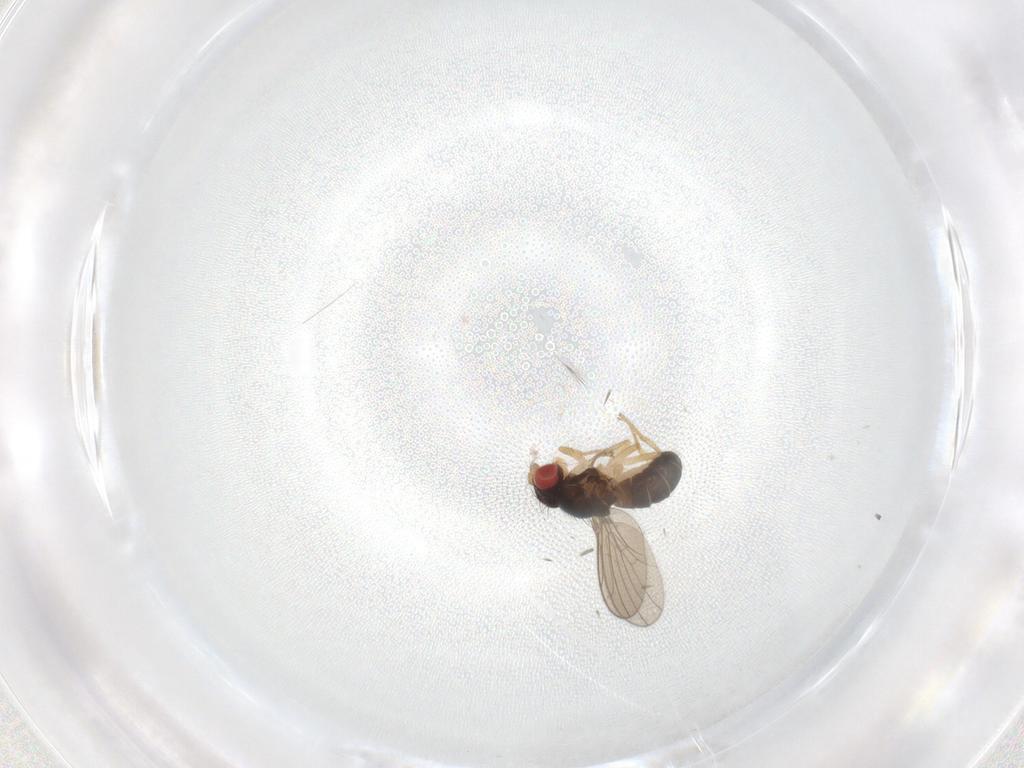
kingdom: Animalia
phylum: Arthropoda
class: Insecta
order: Diptera
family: Drosophilidae
